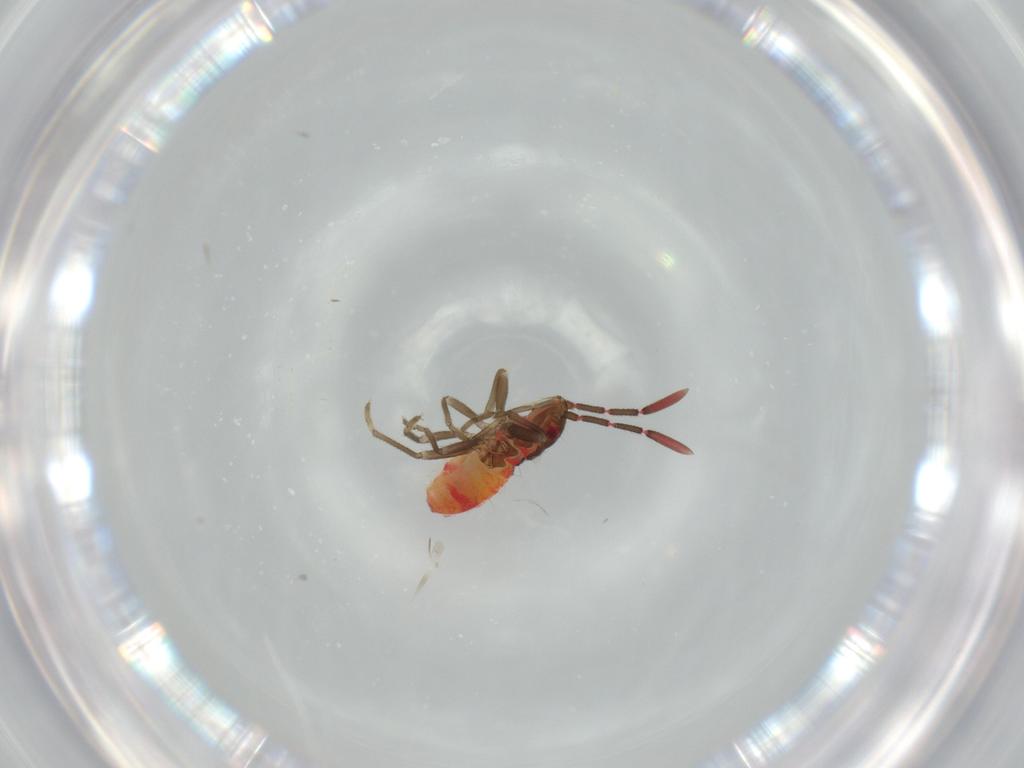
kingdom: Animalia
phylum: Arthropoda
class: Insecta
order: Hemiptera
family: Rhyparochromidae
